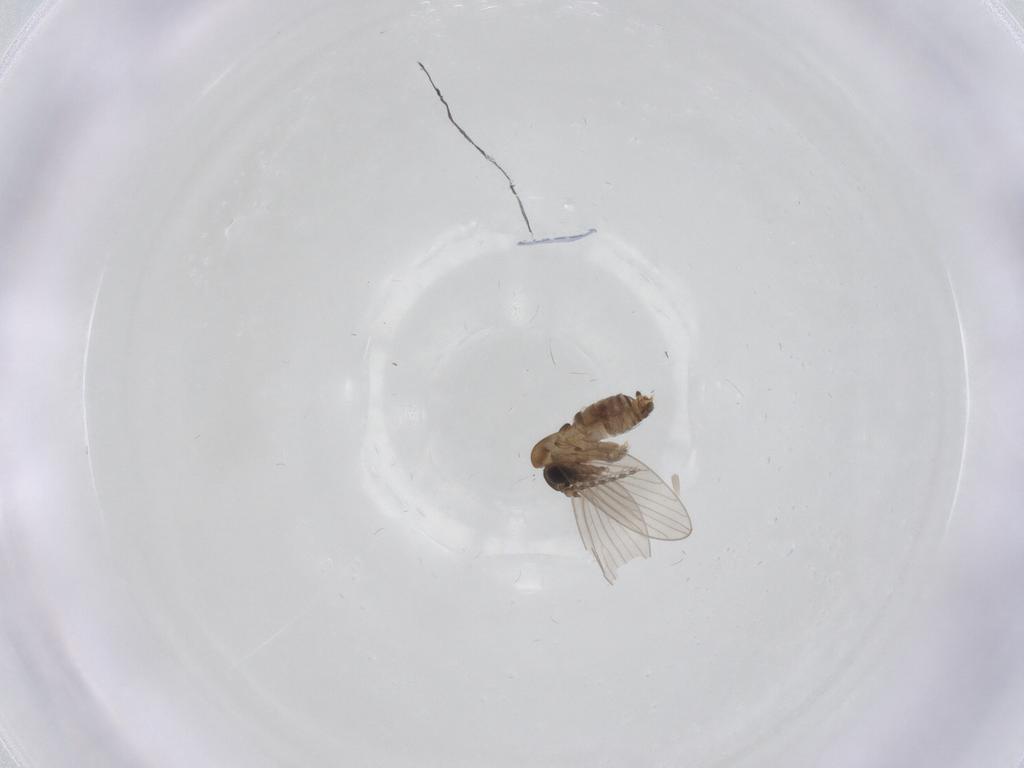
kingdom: Animalia
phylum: Arthropoda
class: Insecta
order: Diptera
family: Psychodidae
